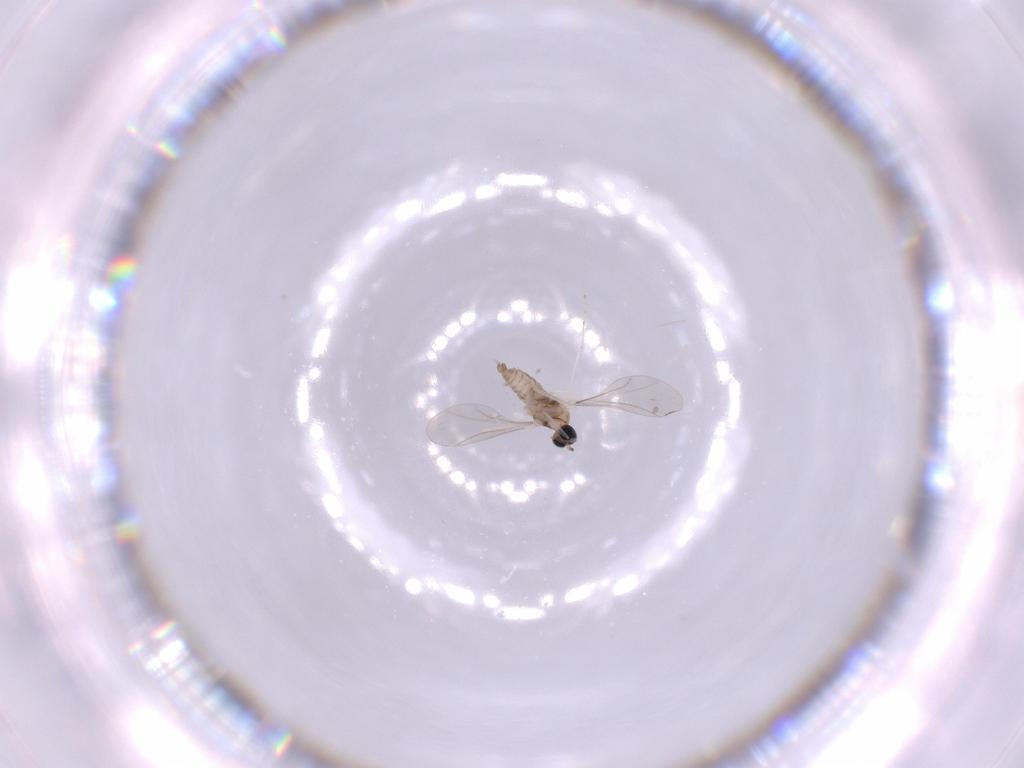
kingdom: Animalia
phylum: Arthropoda
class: Insecta
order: Diptera
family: Cecidomyiidae
